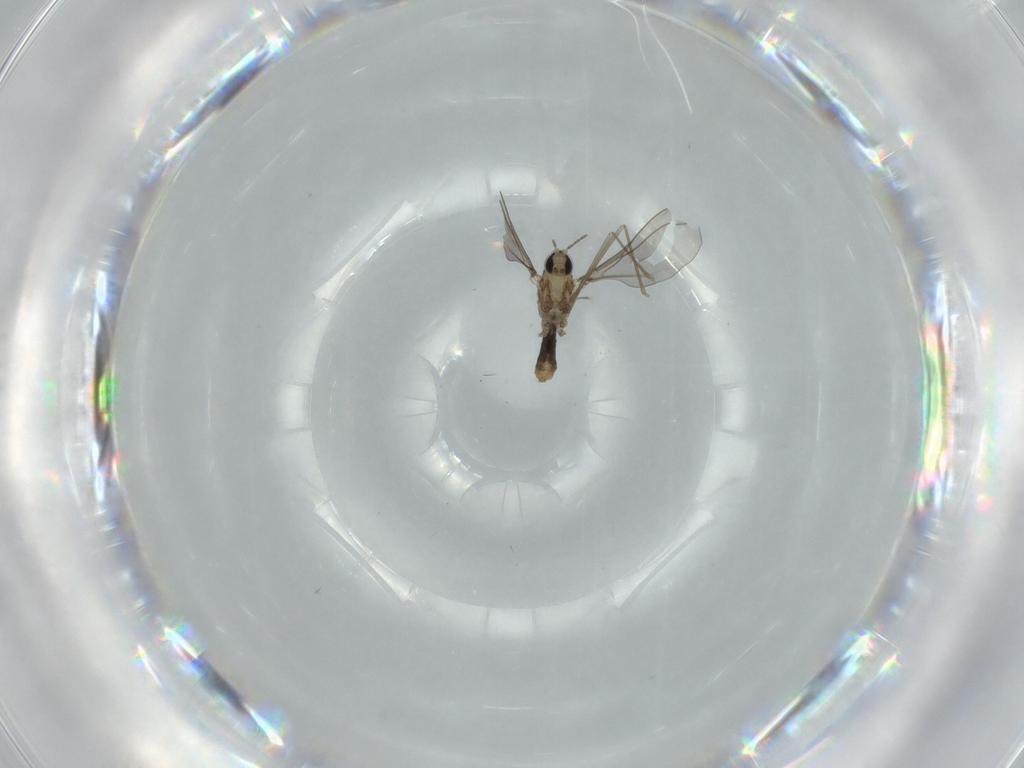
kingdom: Animalia
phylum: Arthropoda
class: Insecta
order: Diptera
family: Cecidomyiidae
